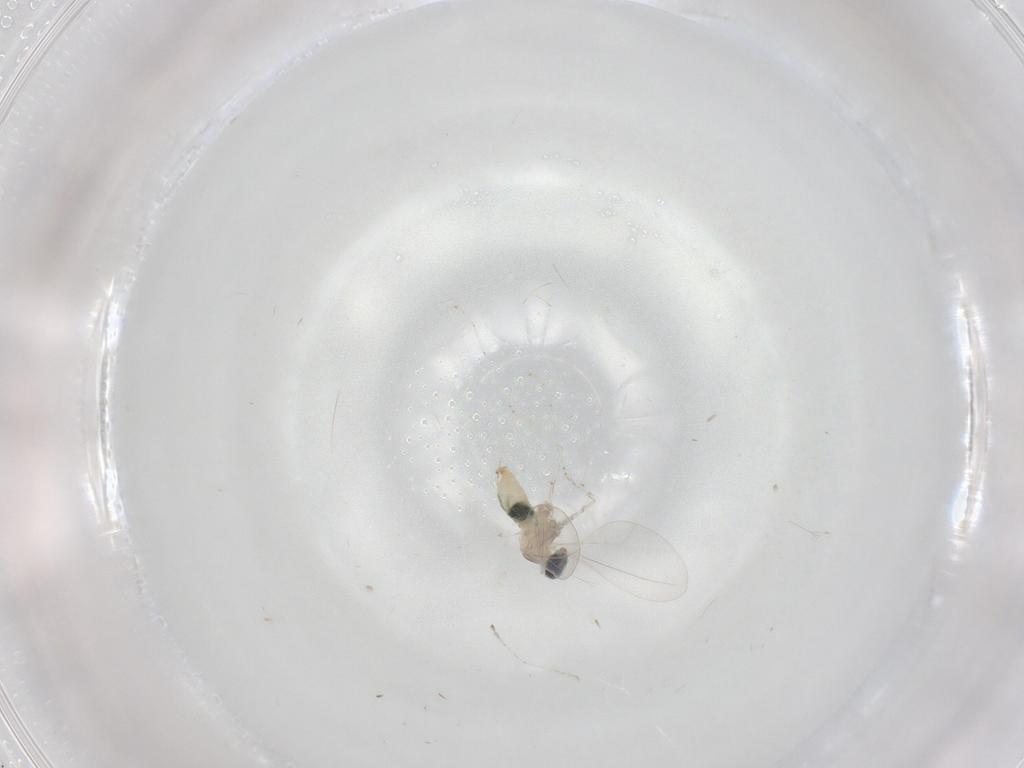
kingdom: Animalia
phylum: Arthropoda
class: Insecta
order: Diptera
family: Cecidomyiidae
